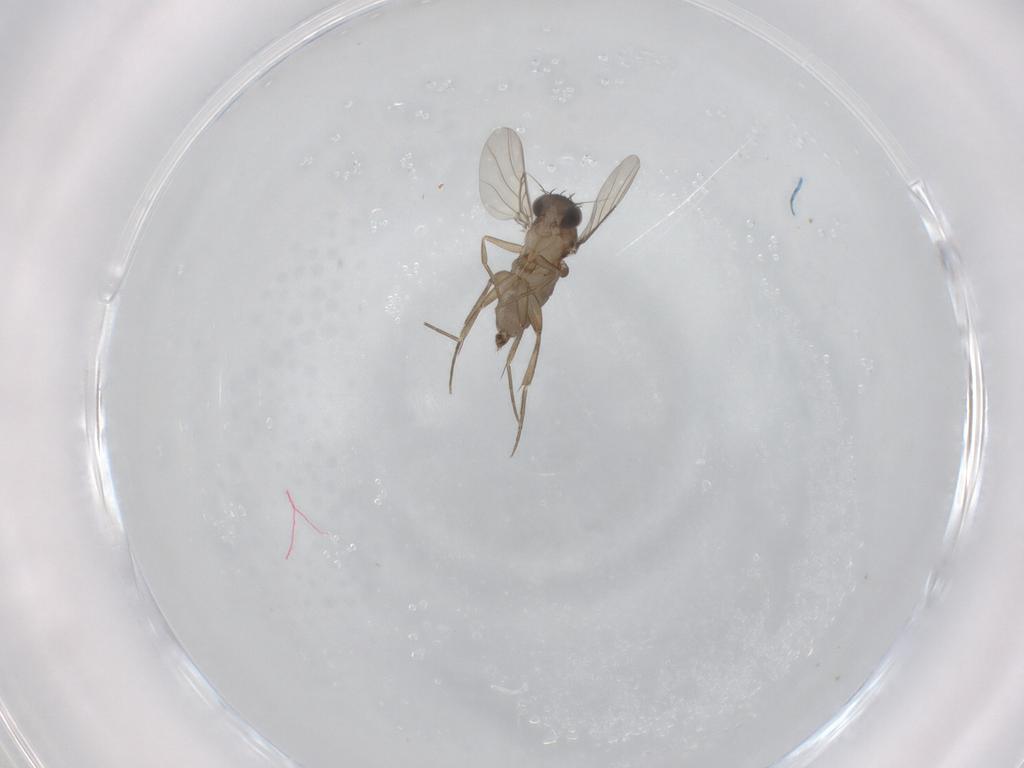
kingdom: Animalia
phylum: Arthropoda
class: Insecta
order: Diptera
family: Phoridae
